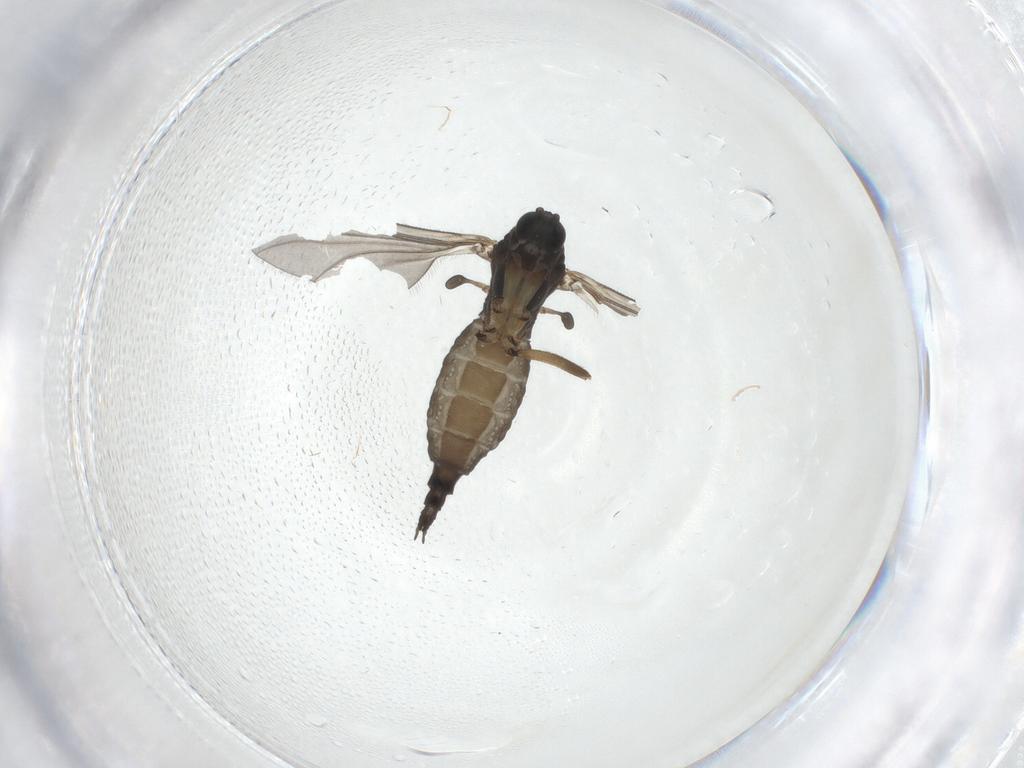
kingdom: Animalia
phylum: Arthropoda
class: Insecta
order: Diptera
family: Sciaridae
